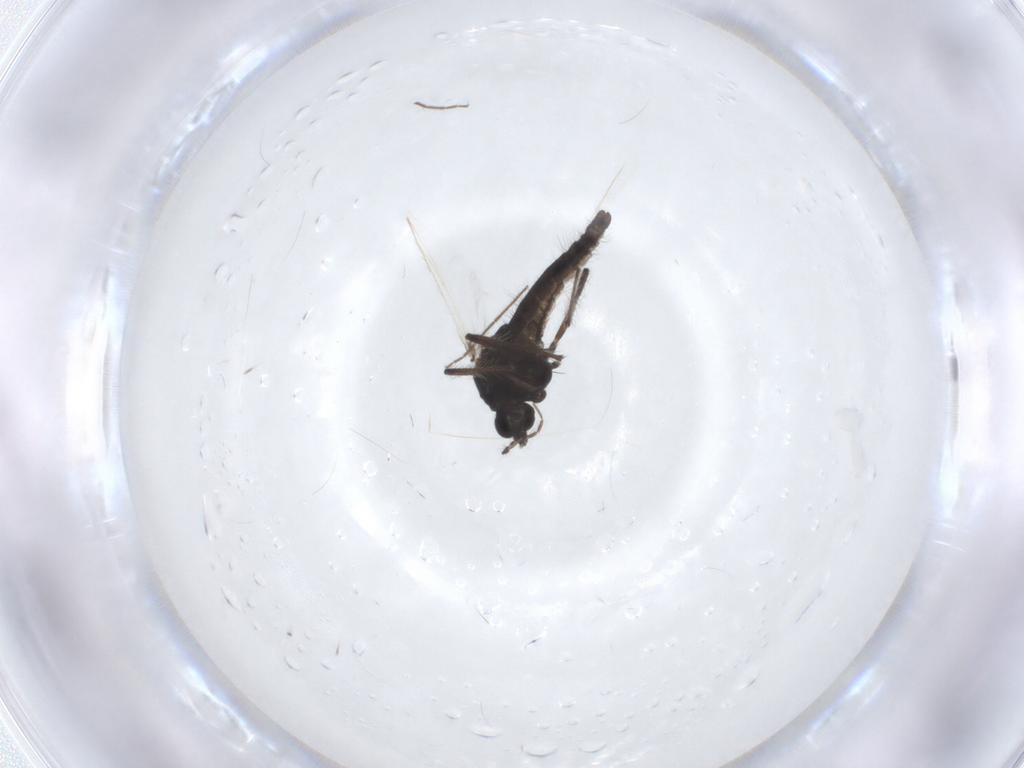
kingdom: Animalia
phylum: Arthropoda
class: Insecta
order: Diptera
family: Chironomidae
